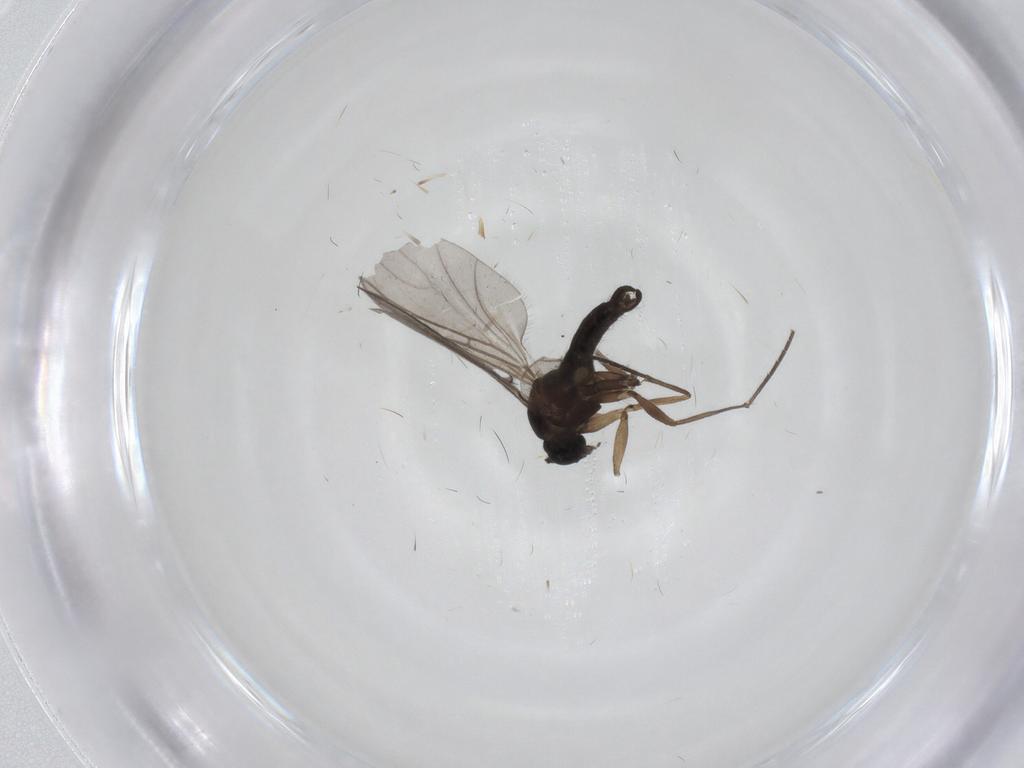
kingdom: Animalia
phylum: Arthropoda
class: Insecta
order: Diptera
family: Sciaridae
